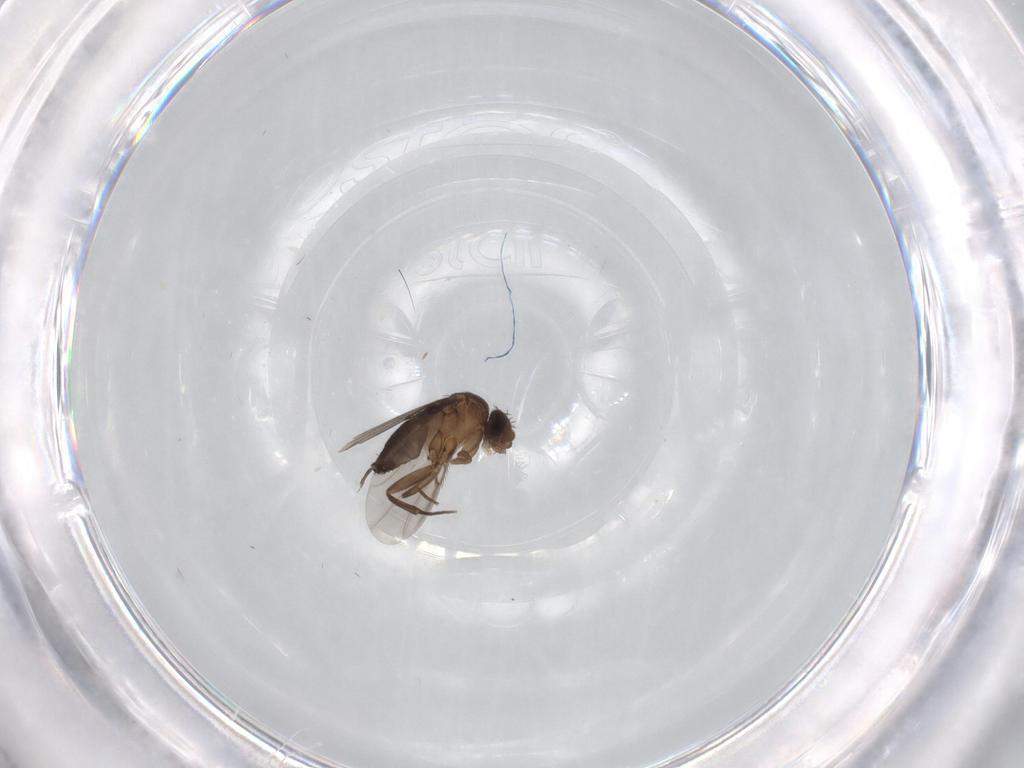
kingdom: Animalia
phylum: Arthropoda
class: Insecta
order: Diptera
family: Phoridae
